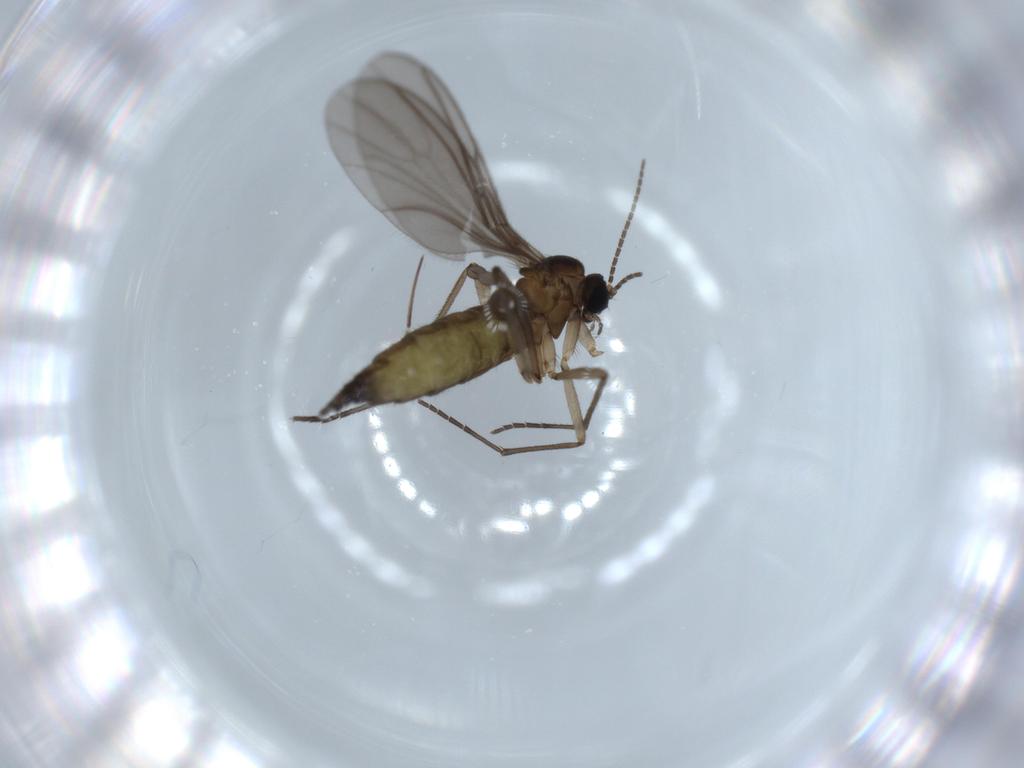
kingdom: Animalia
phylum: Arthropoda
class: Insecta
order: Diptera
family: Sciaridae
